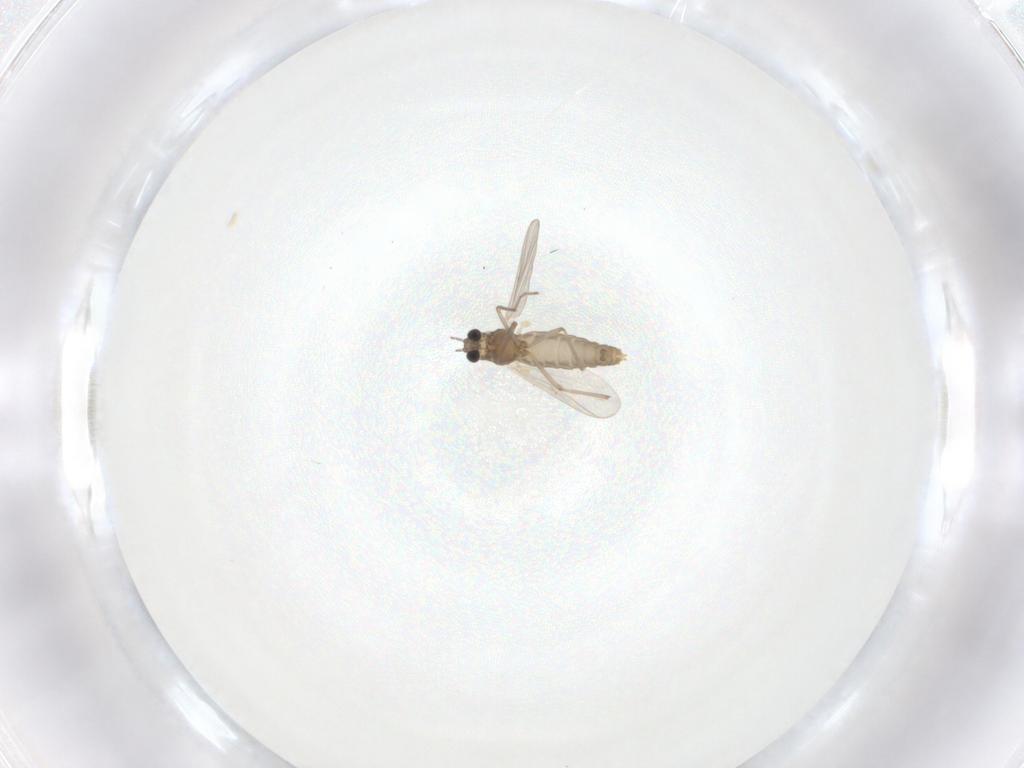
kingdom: Animalia
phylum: Arthropoda
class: Insecta
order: Diptera
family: Chironomidae
